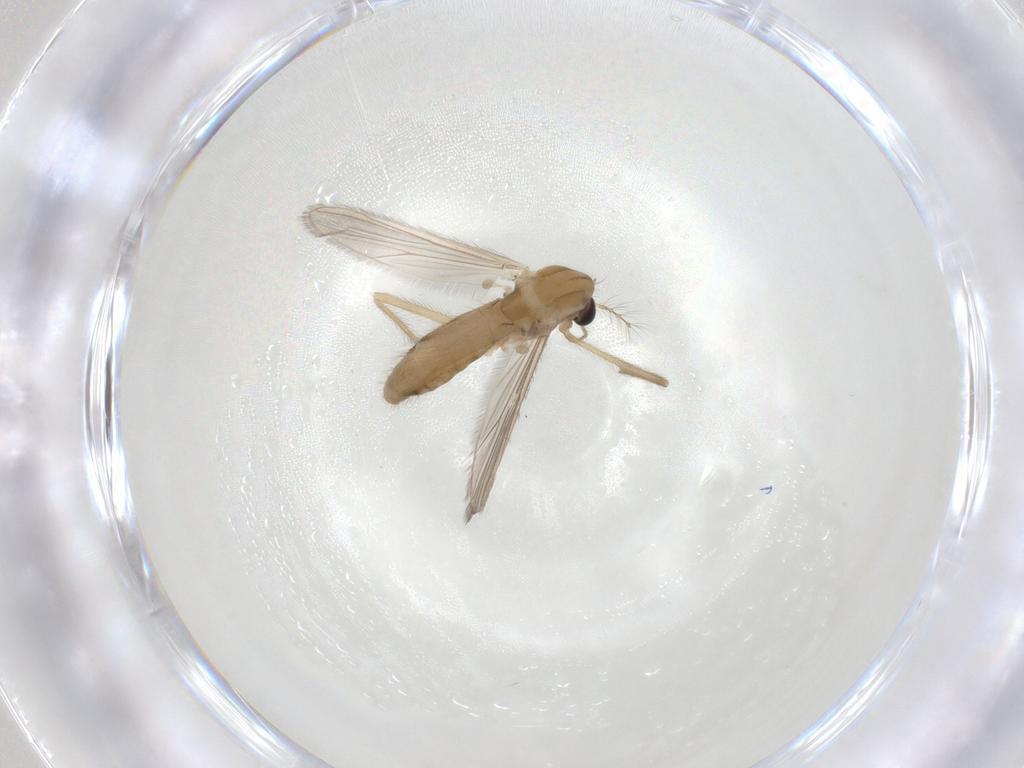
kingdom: Animalia
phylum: Arthropoda
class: Insecta
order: Diptera
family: Chironomidae
